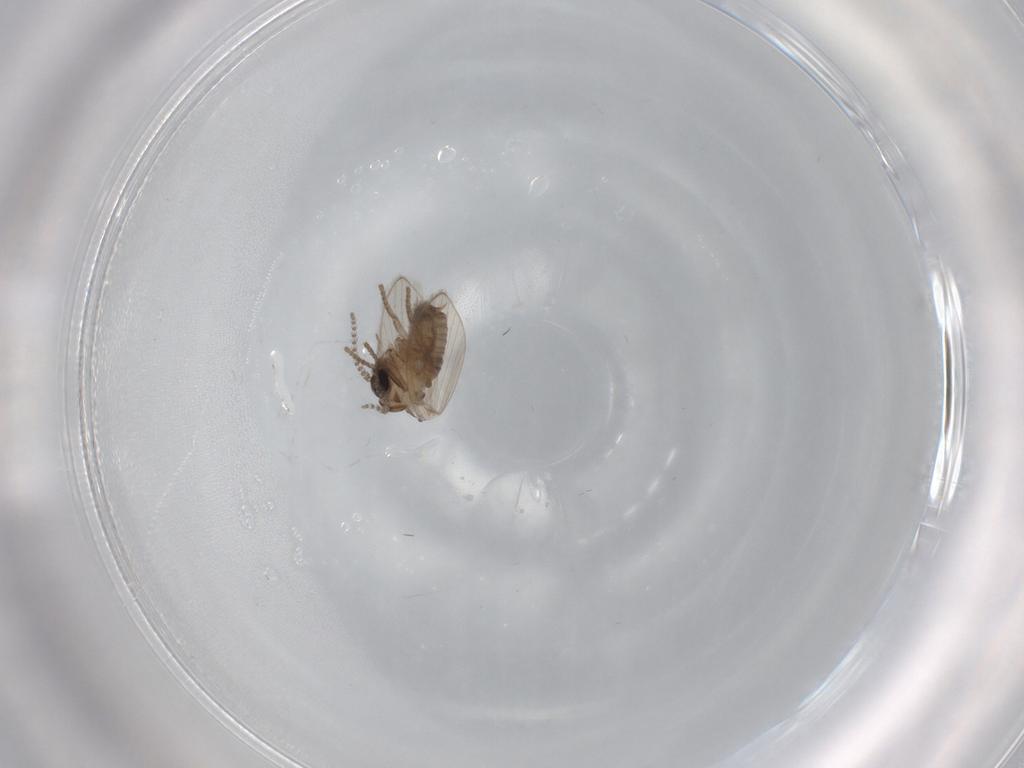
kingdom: Animalia
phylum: Arthropoda
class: Insecta
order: Diptera
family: Psychodidae
